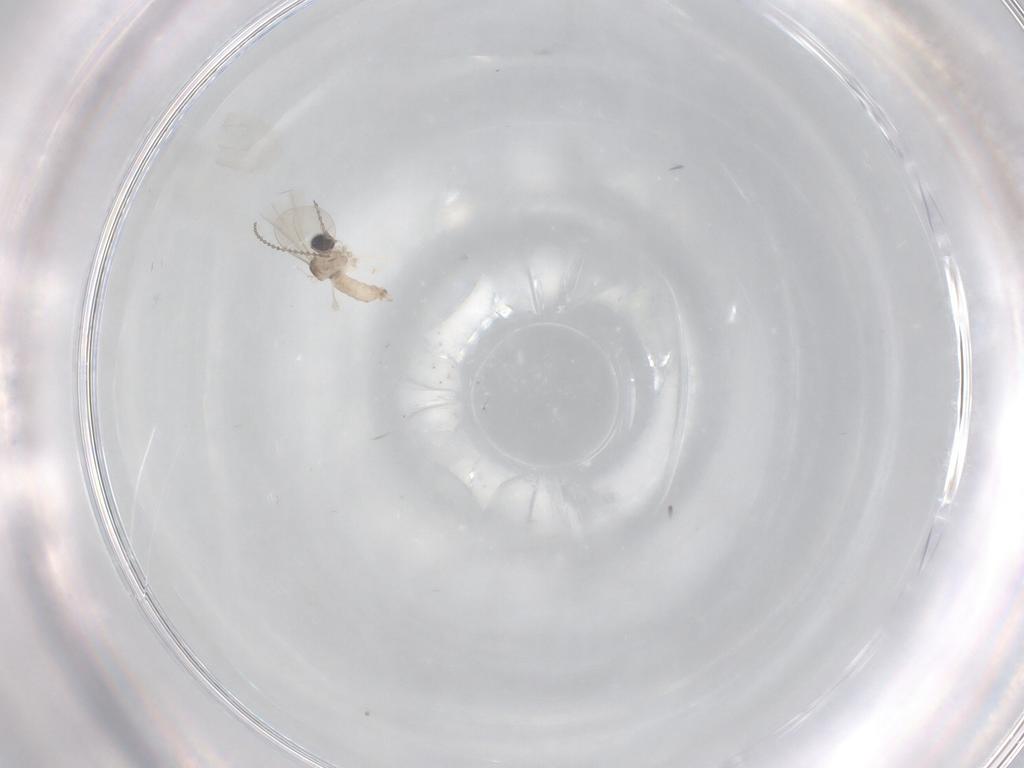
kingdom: Animalia
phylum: Arthropoda
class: Insecta
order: Diptera
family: Cecidomyiidae
